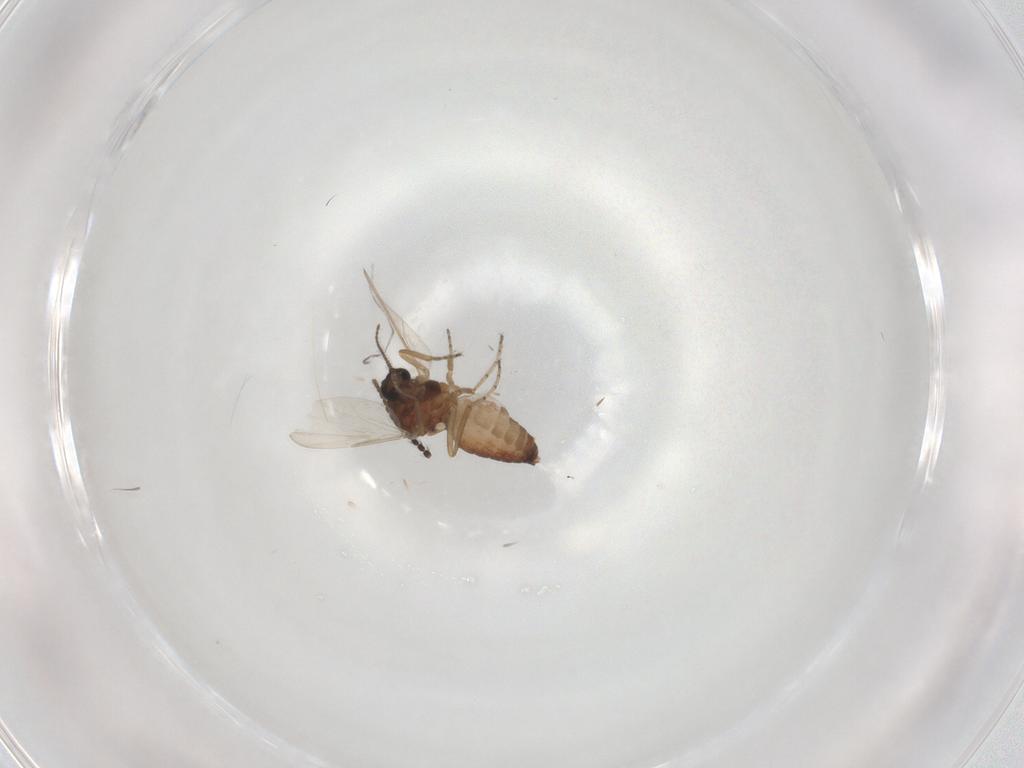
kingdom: Animalia
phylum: Arthropoda
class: Insecta
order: Diptera
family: Ceratopogonidae
